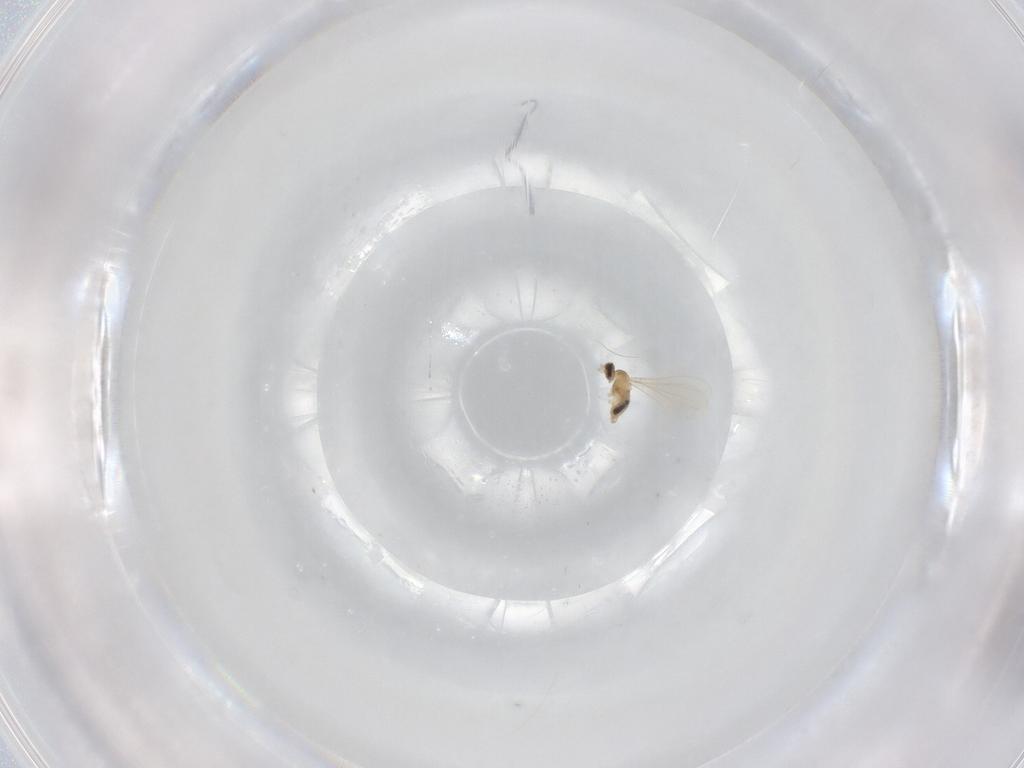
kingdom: Animalia
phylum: Arthropoda
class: Insecta
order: Diptera
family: Cecidomyiidae
